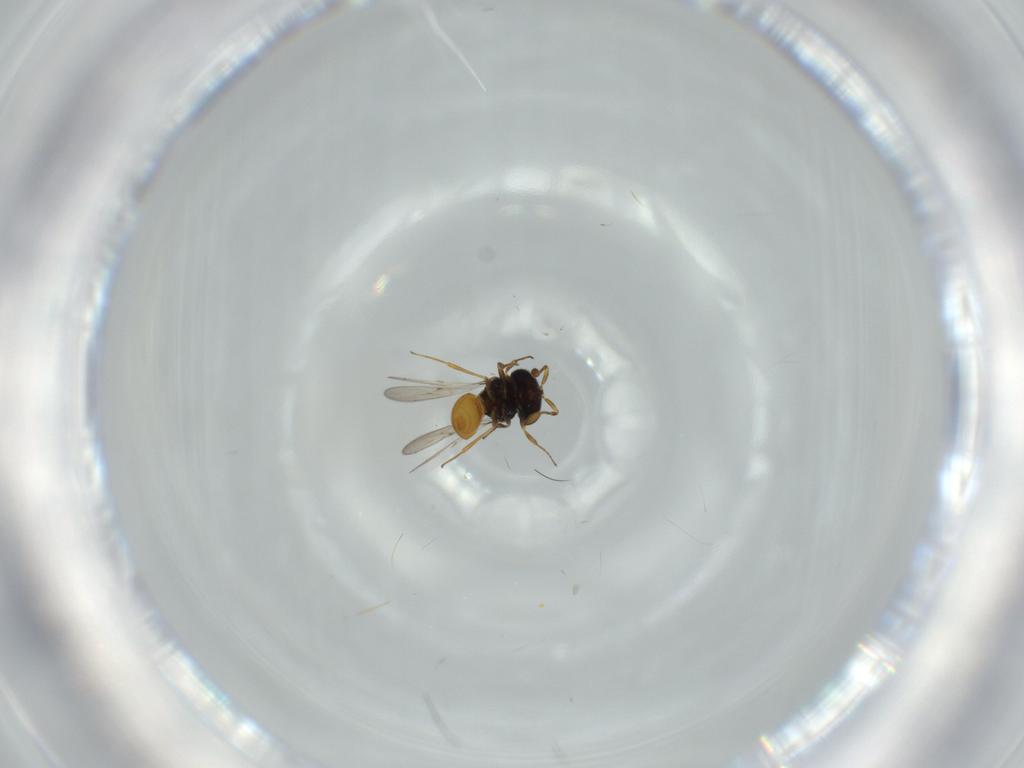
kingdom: Animalia
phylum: Arthropoda
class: Insecta
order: Hymenoptera
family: Scelionidae
